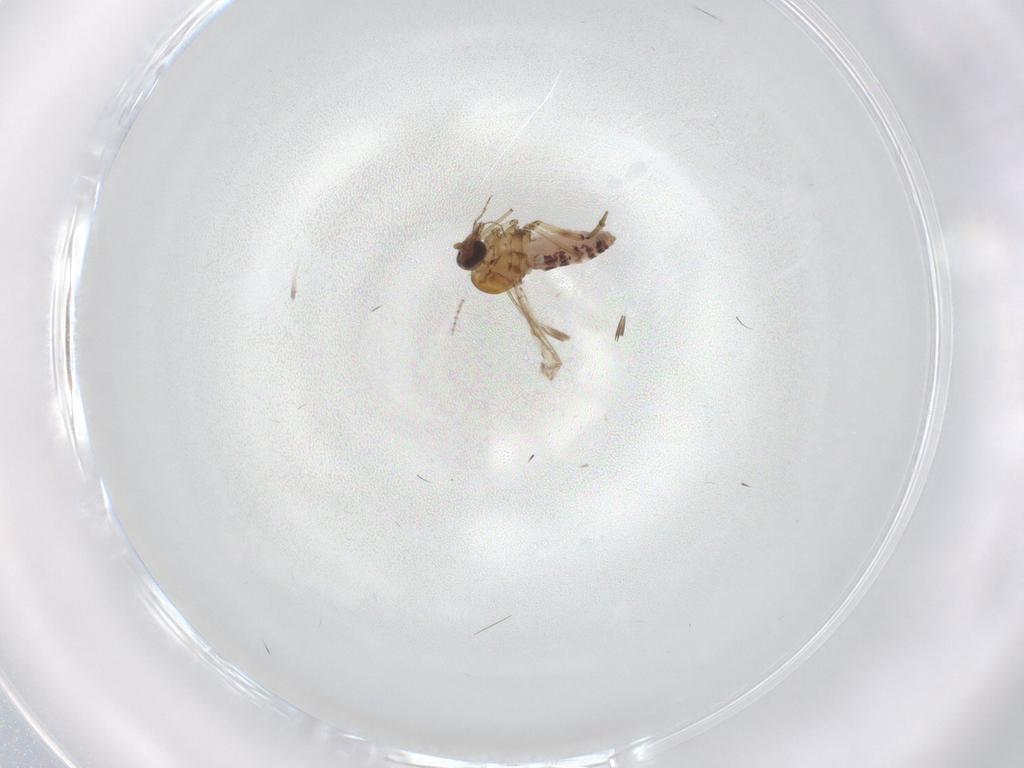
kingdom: Animalia
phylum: Arthropoda
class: Insecta
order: Diptera
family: Ceratopogonidae
